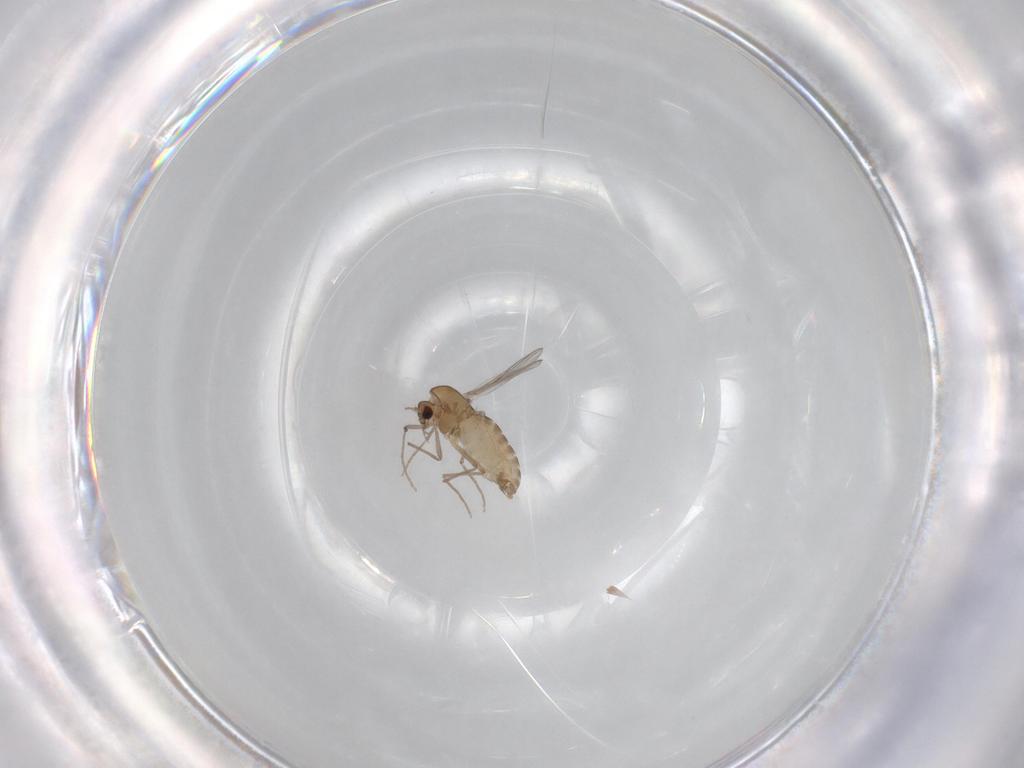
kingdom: Animalia
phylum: Arthropoda
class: Insecta
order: Diptera
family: Chironomidae
